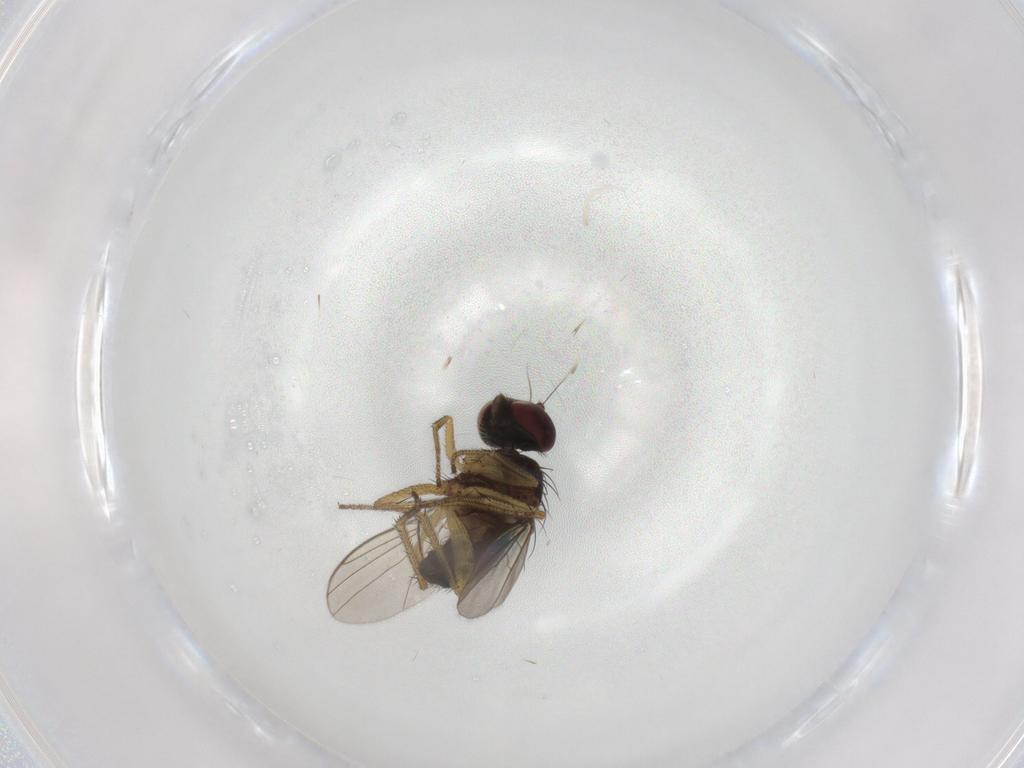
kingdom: Animalia
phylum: Arthropoda
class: Insecta
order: Diptera
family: Dolichopodidae
